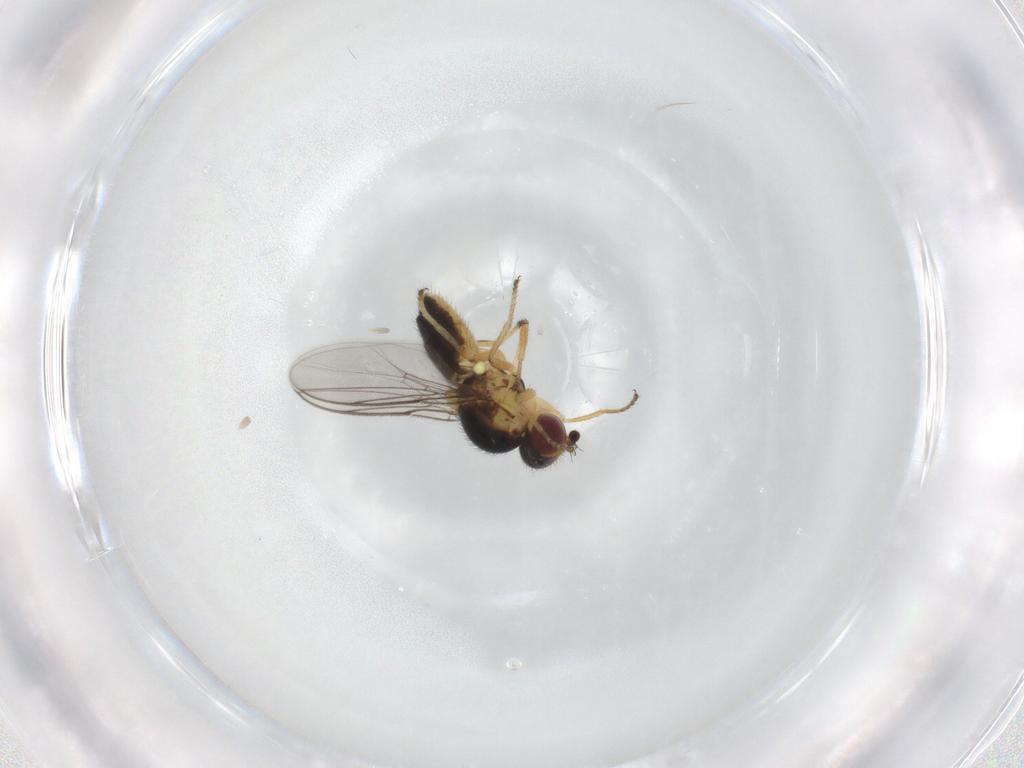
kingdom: Animalia
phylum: Arthropoda
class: Insecta
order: Diptera
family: Chloropidae
